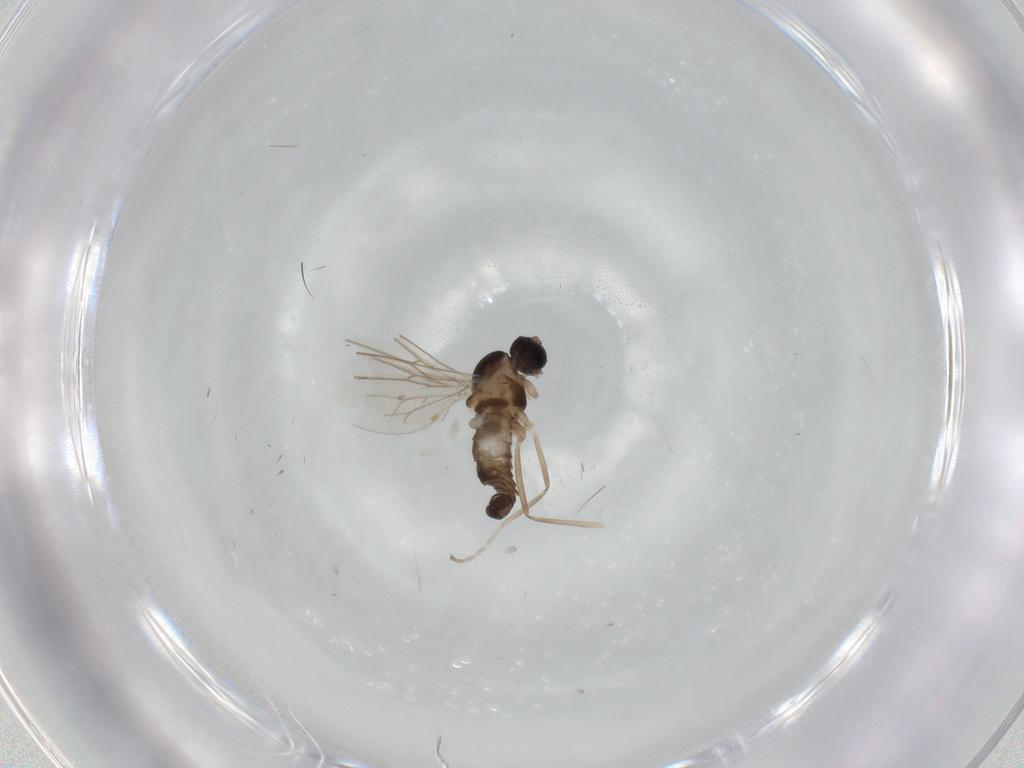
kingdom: Animalia
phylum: Arthropoda
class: Insecta
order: Diptera
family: Cecidomyiidae
